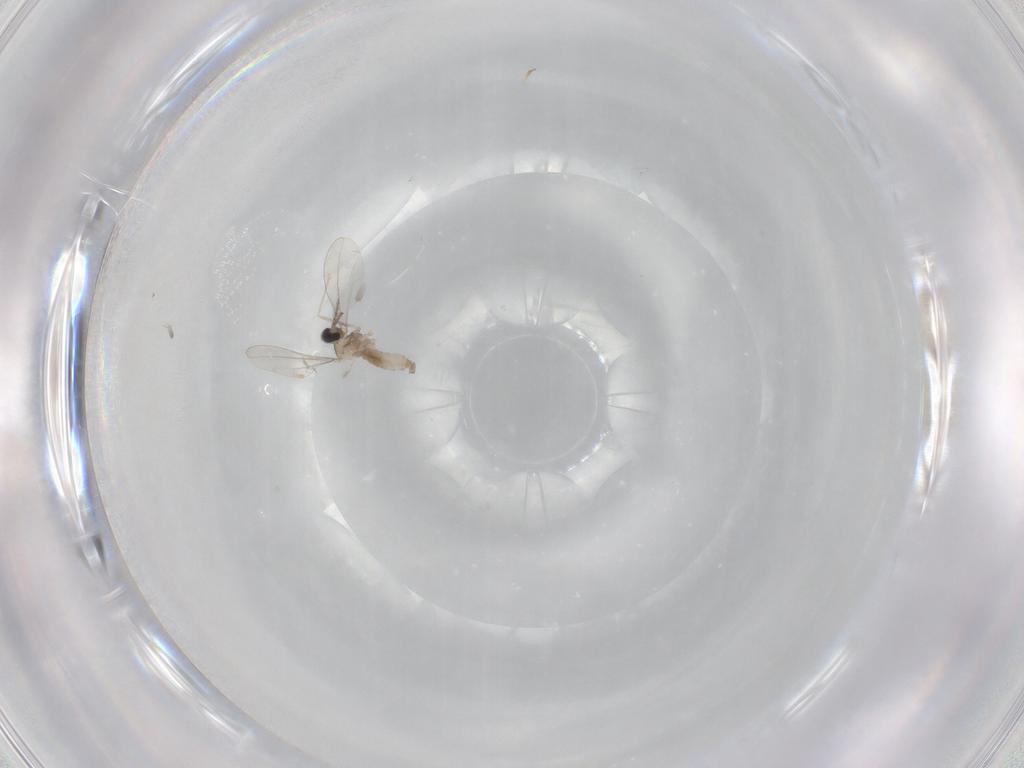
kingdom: Animalia
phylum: Arthropoda
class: Insecta
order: Diptera
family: Cecidomyiidae
